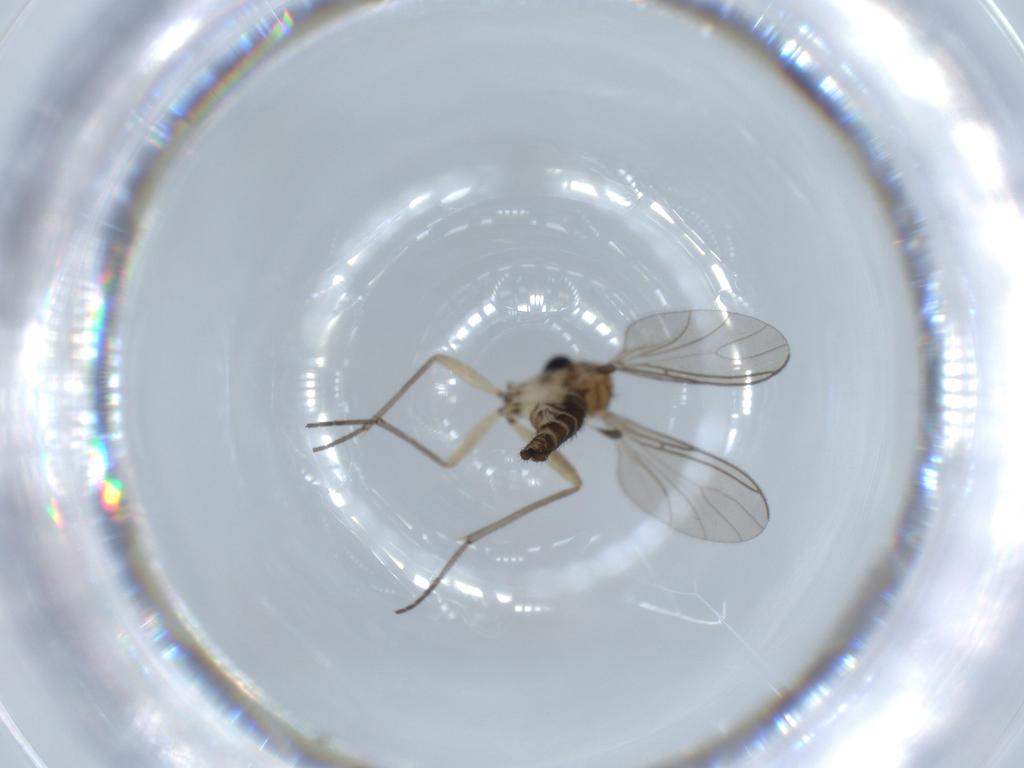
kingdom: Animalia
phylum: Arthropoda
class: Insecta
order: Diptera
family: Sciaridae
